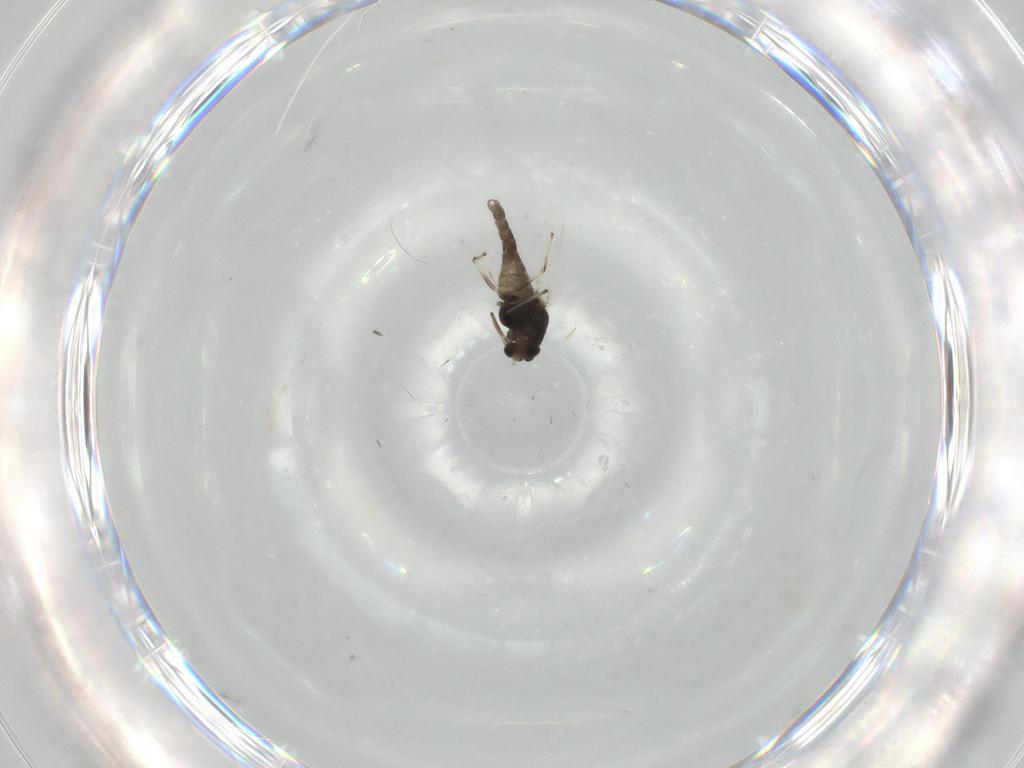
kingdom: Animalia
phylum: Arthropoda
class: Insecta
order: Diptera
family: Chironomidae
